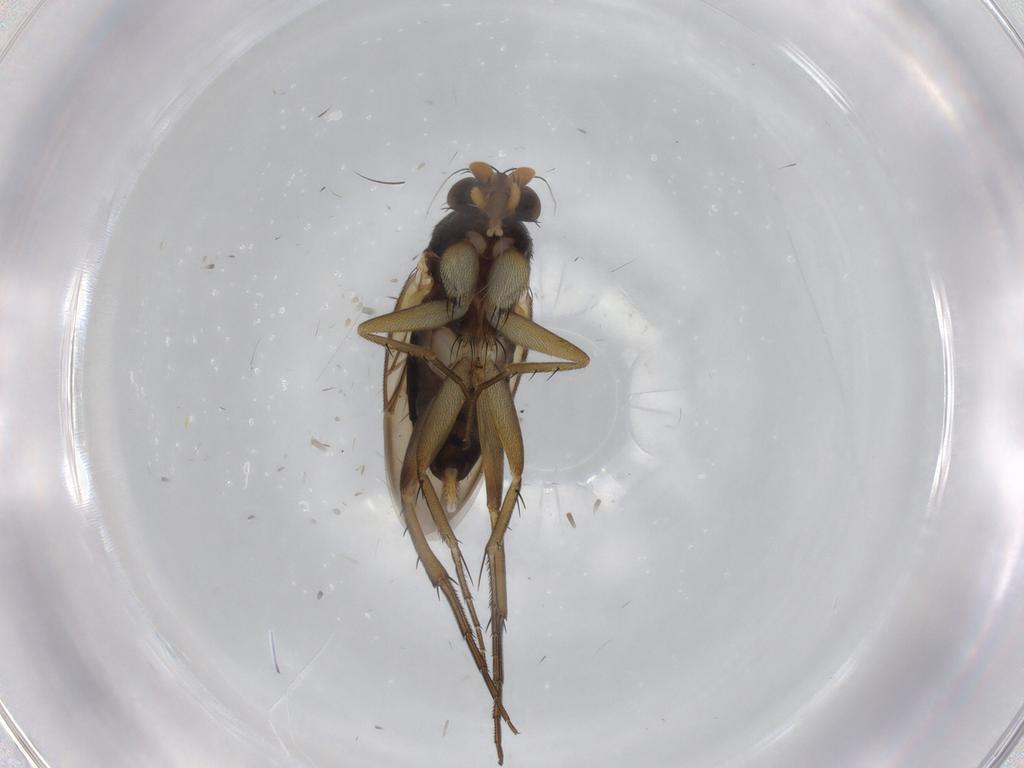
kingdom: Animalia
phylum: Arthropoda
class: Insecta
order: Diptera
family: Phoridae
